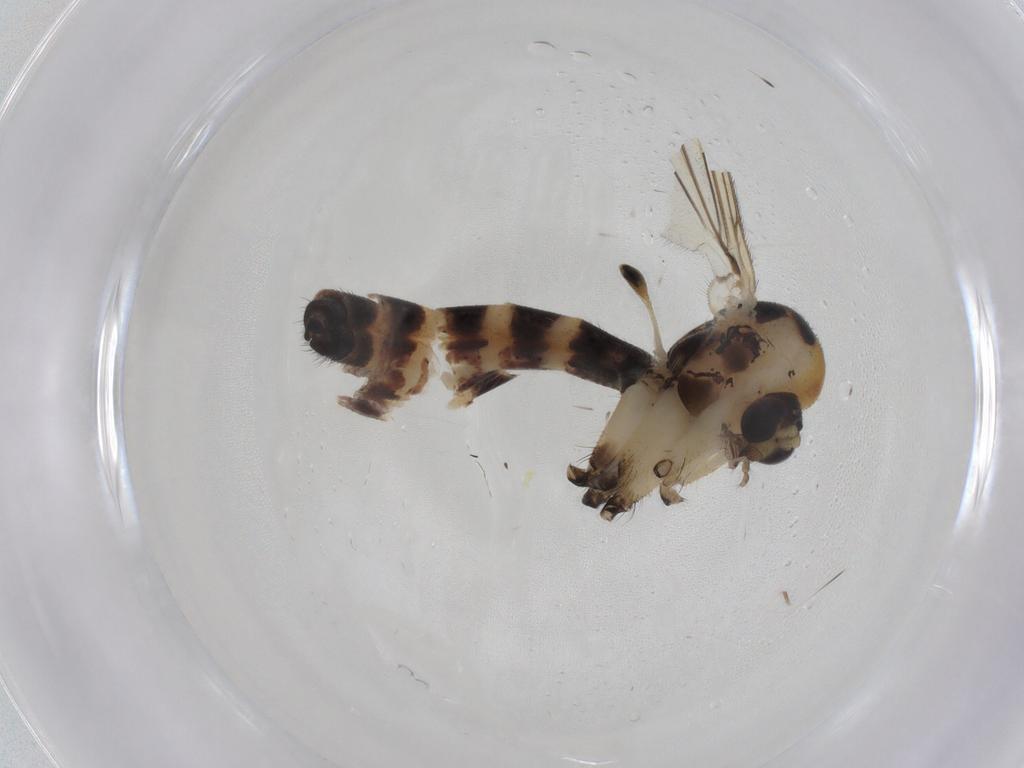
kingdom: Animalia
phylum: Arthropoda
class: Insecta
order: Diptera
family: Mycetophilidae
